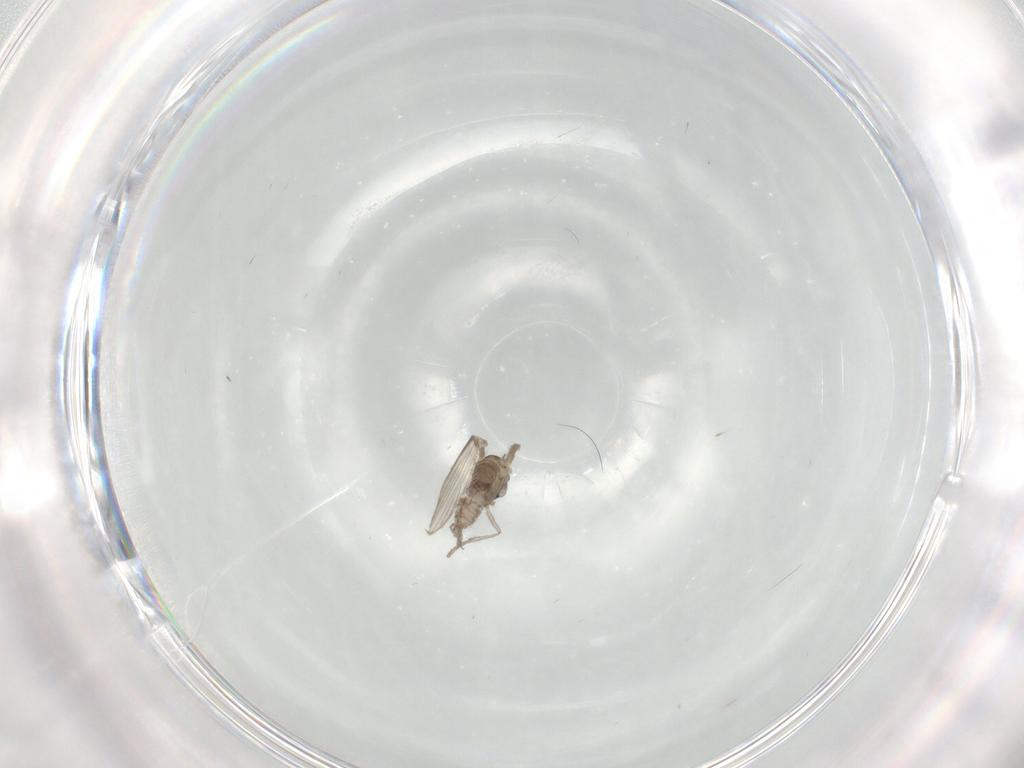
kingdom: Animalia
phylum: Arthropoda
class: Insecta
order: Diptera
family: Psychodidae
